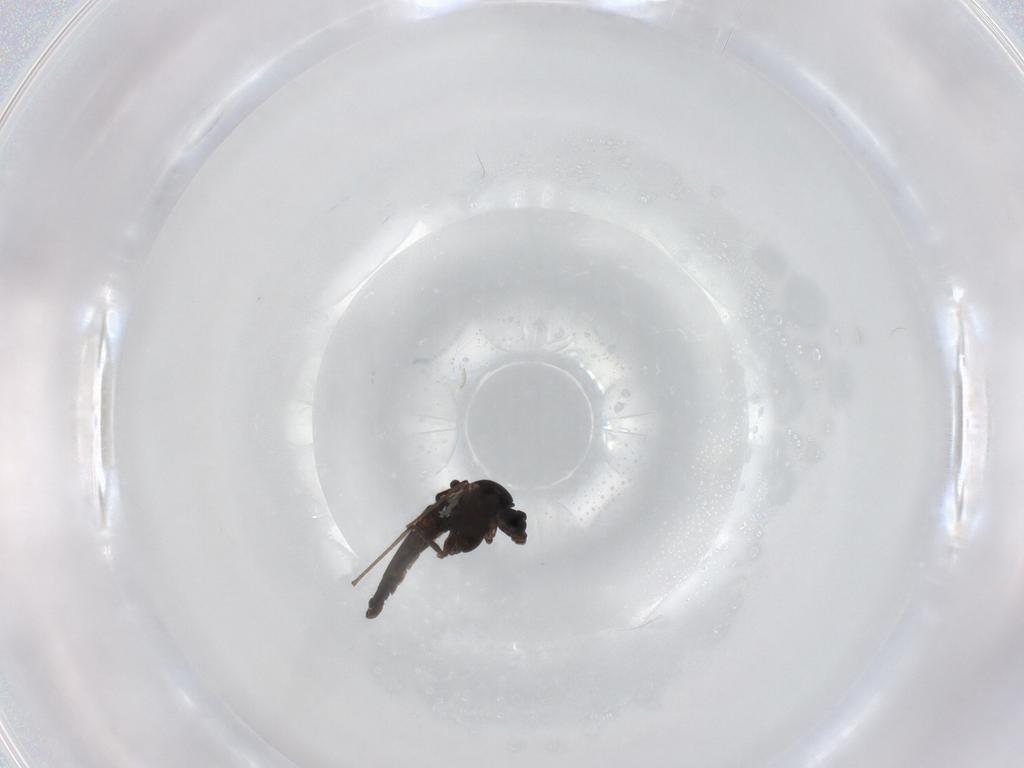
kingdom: Animalia
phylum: Arthropoda
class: Insecta
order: Diptera
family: Chironomidae
